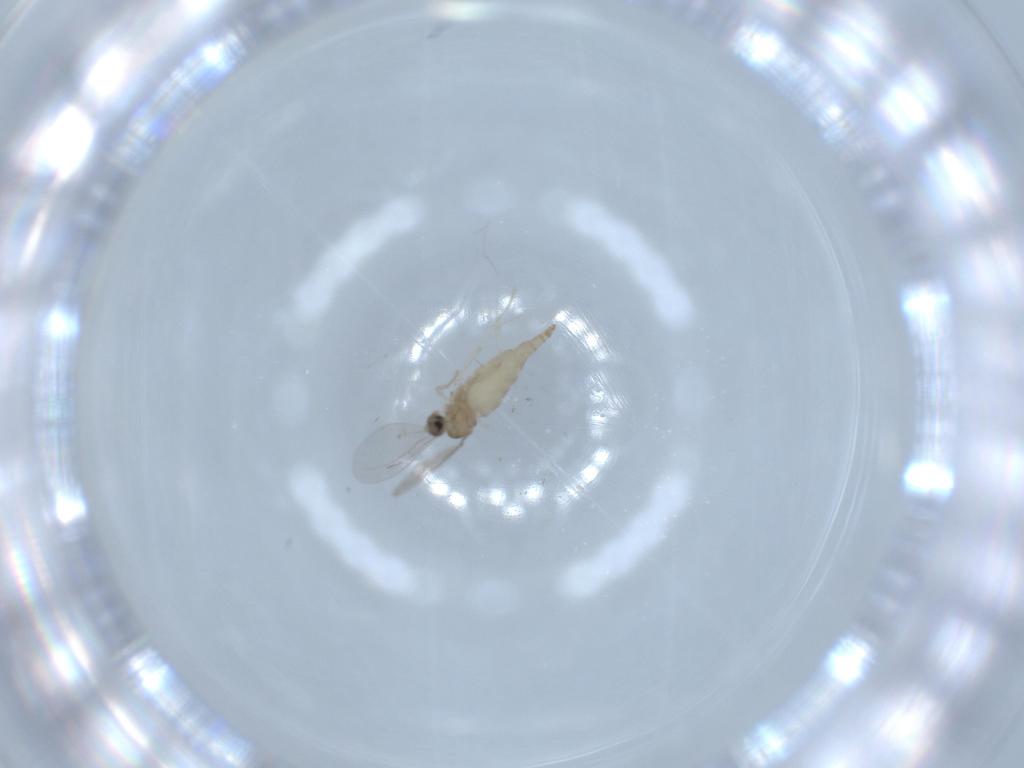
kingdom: Animalia
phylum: Arthropoda
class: Insecta
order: Diptera
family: Cecidomyiidae
